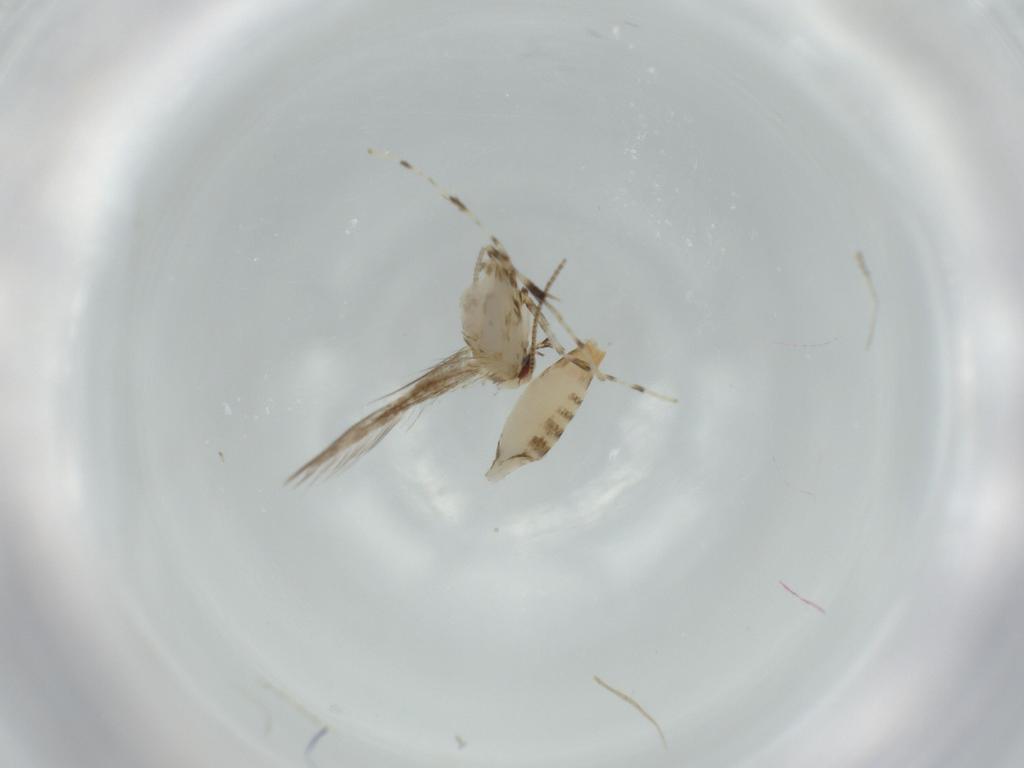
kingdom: Animalia
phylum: Arthropoda
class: Insecta
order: Lepidoptera
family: Gracillariidae
